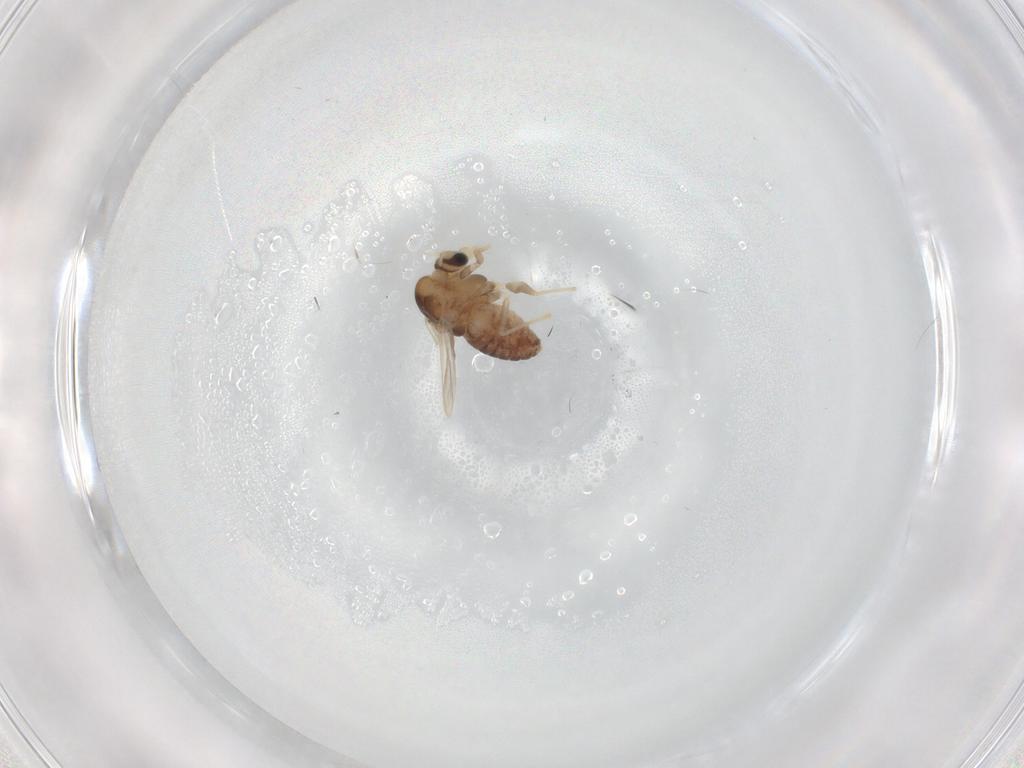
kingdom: Animalia
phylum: Arthropoda
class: Insecta
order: Diptera
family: Chironomidae
